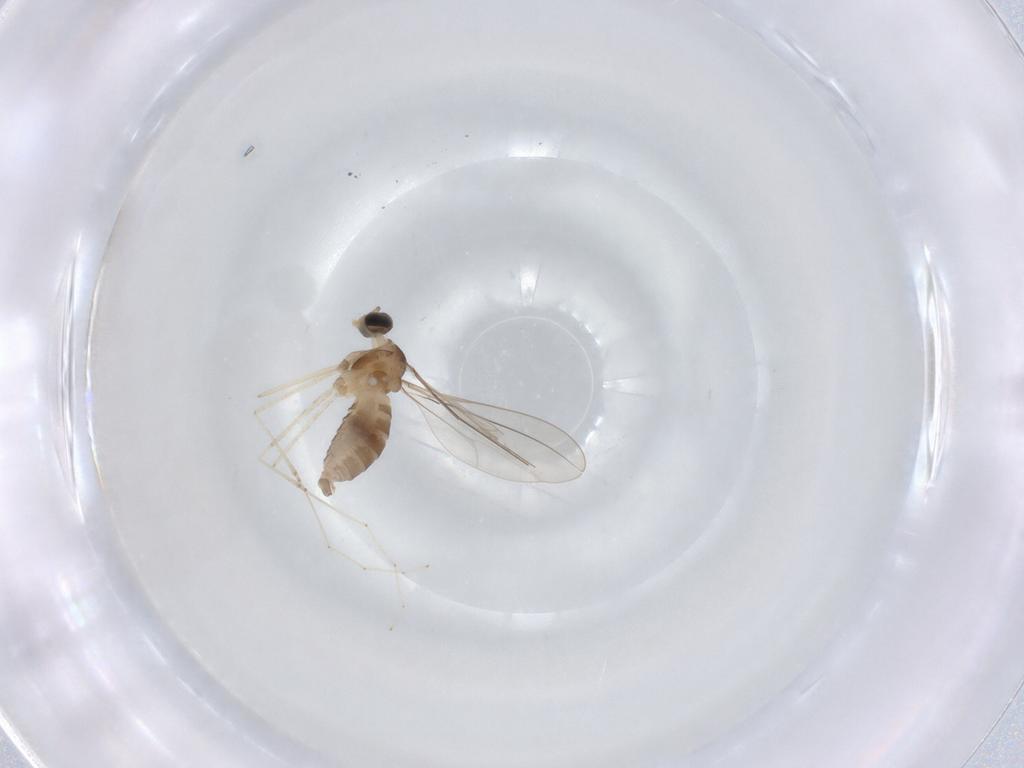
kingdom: Animalia
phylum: Arthropoda
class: Insecta
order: Diptera
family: Cecidomyiidae
